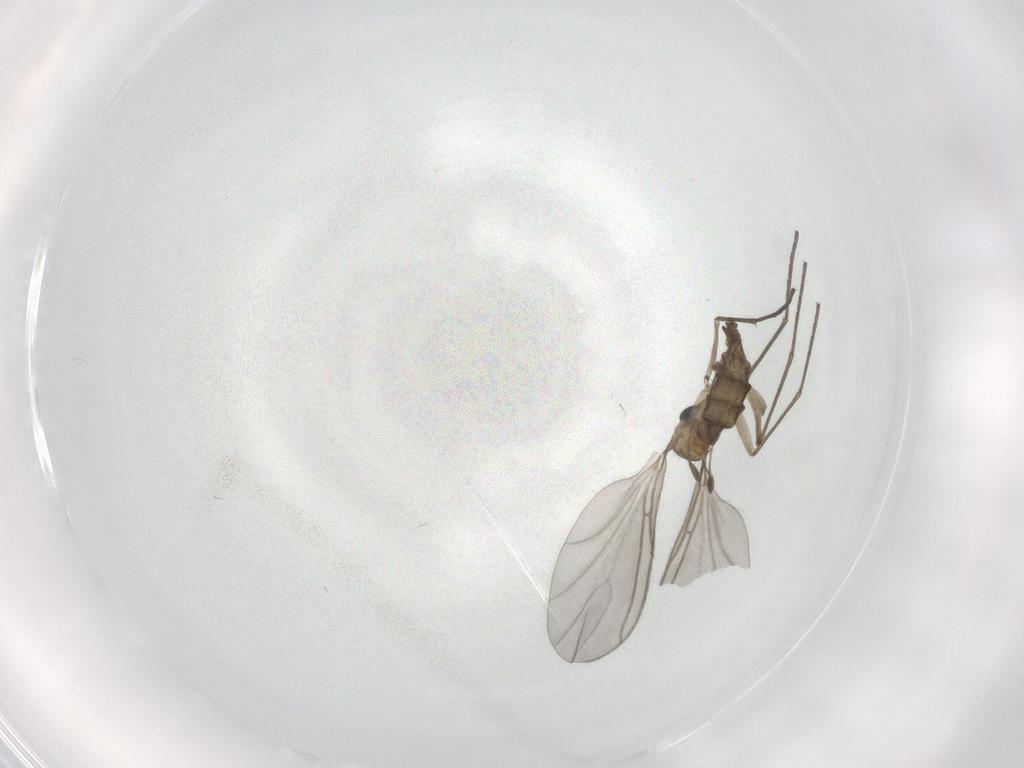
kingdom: Animalia
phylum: Arthropoda
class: Insecta
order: Diptera
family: Sciaridae
